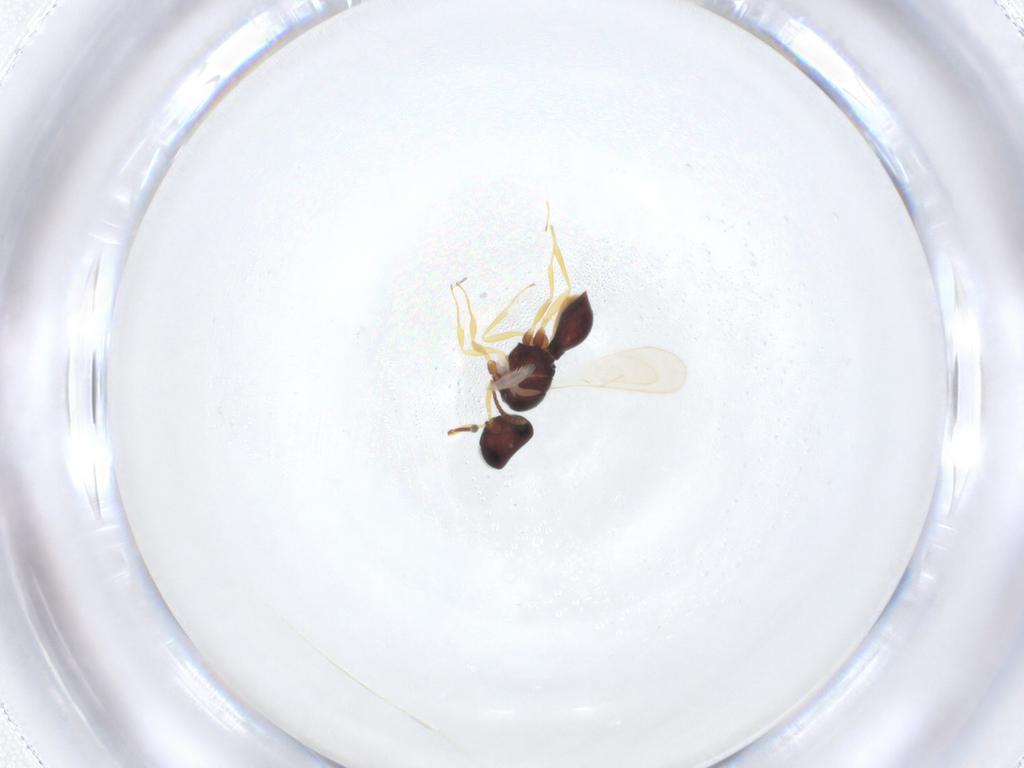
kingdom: Animalia
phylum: Arthropoda
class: Insecta
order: Hymenoptera
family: Scelionidae
